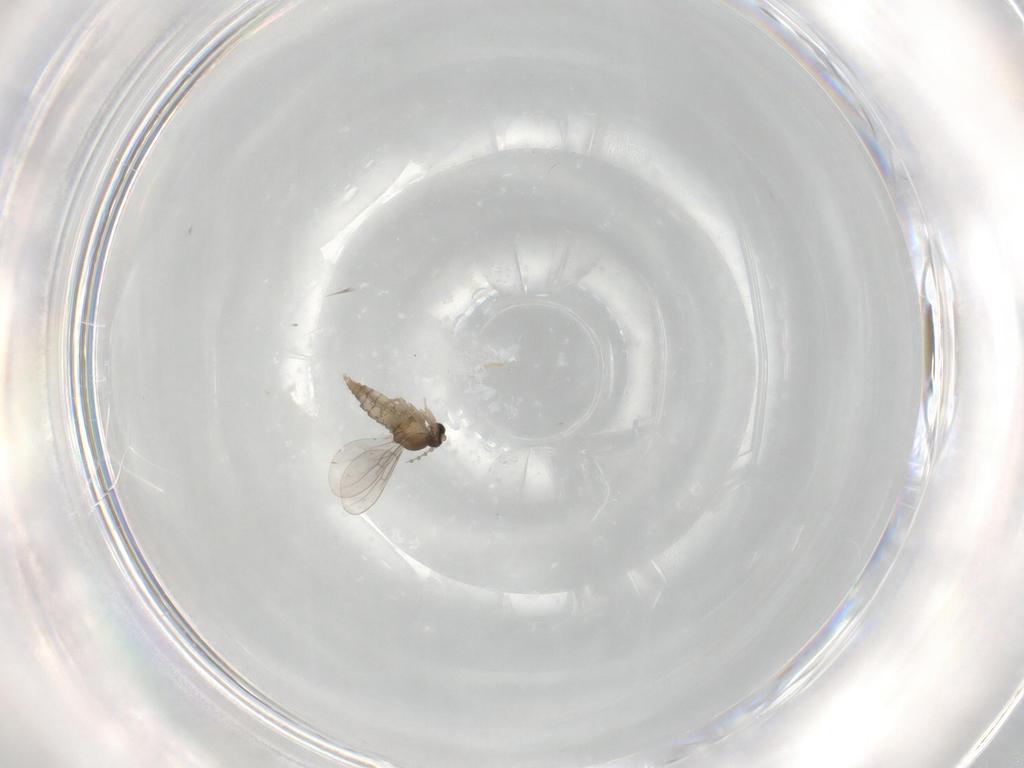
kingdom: Animalia
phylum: Arthropoda
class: Insecta
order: Diptera
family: Cecidomyiidae
